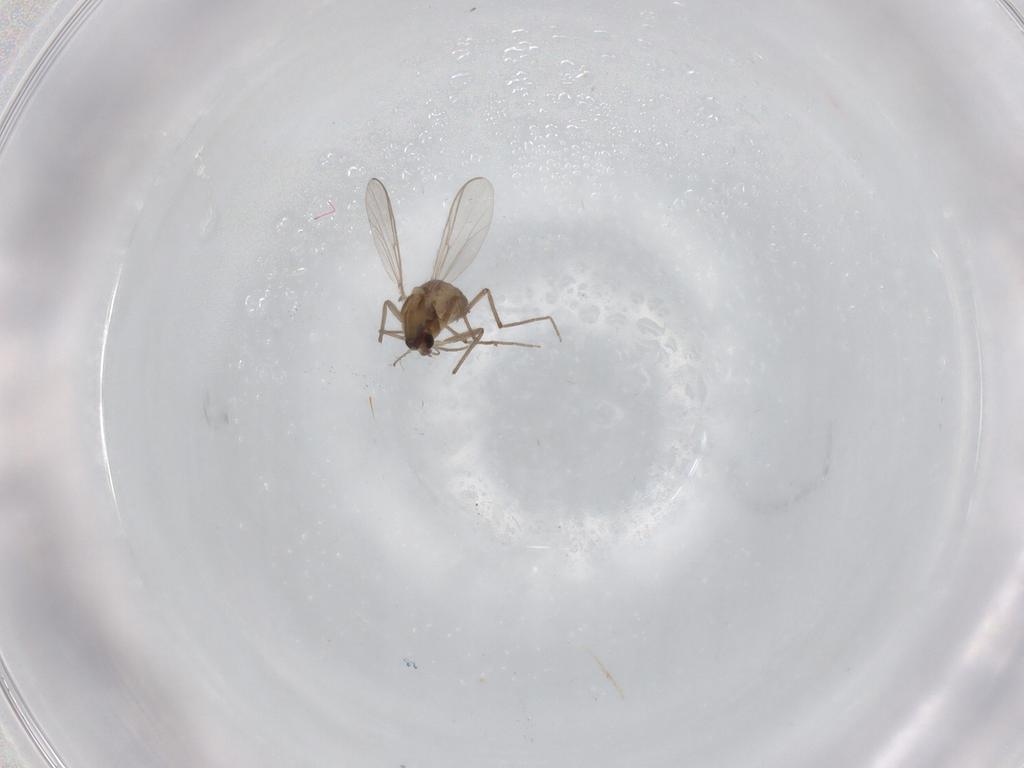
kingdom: Animalia
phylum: Arthropoda
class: Insecta
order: Diptera
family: Chironomidae
